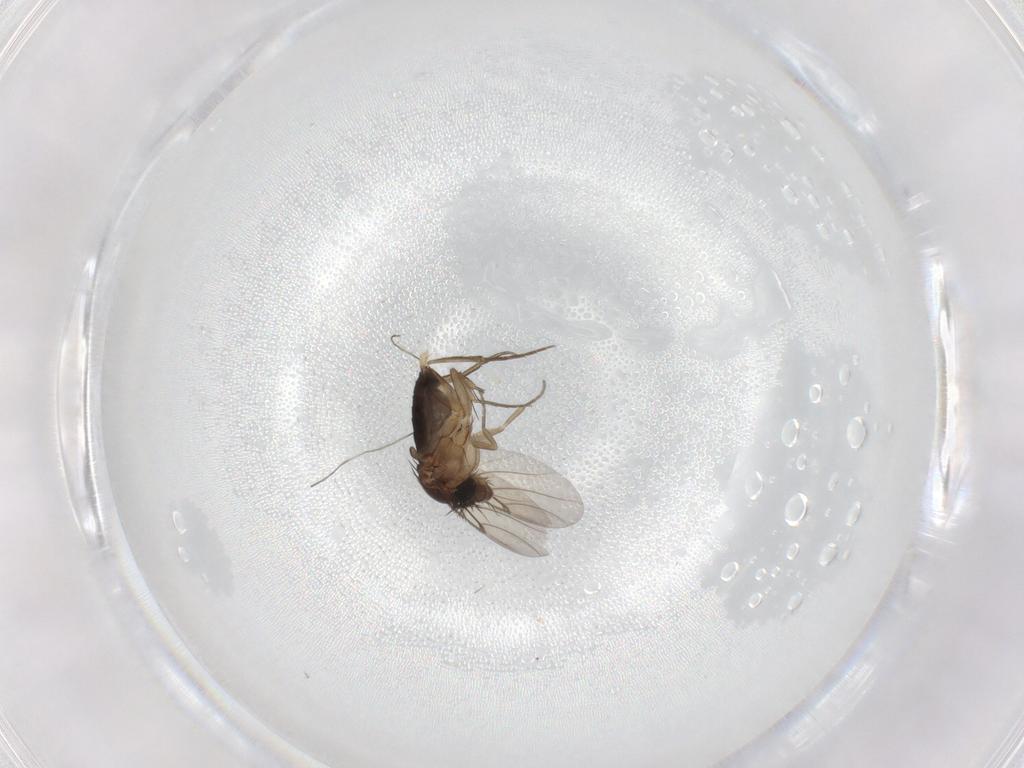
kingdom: Animalia
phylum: Arthropoda
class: Insecta
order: Diptera
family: Phoridae
